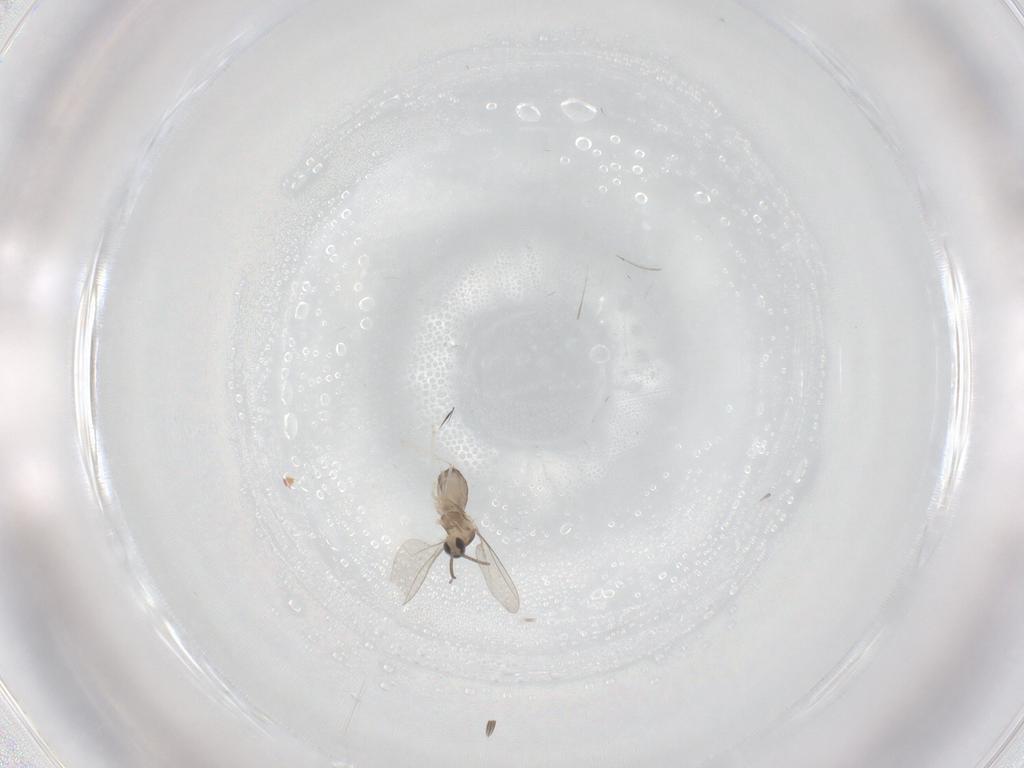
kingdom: Animalia
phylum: Arthropoda
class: Insecta
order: Diptera
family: Cecidomyiidae
